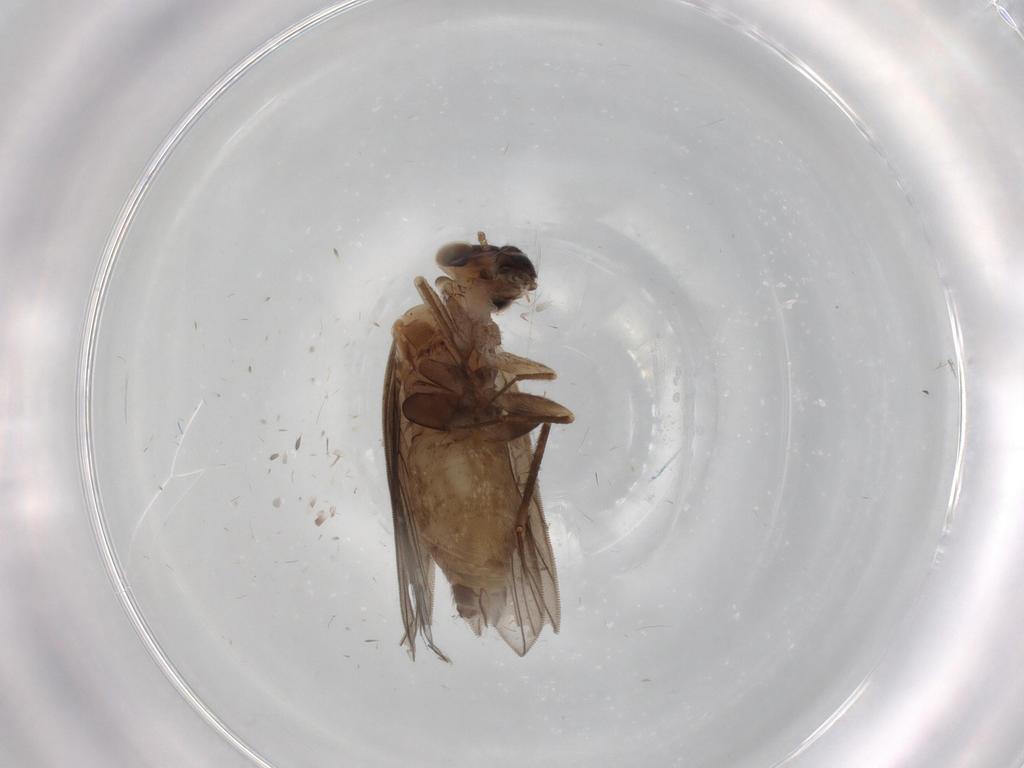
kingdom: Animalia
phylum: Arthropoda
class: Insecta
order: Psocodea
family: Lepidopsocidae
